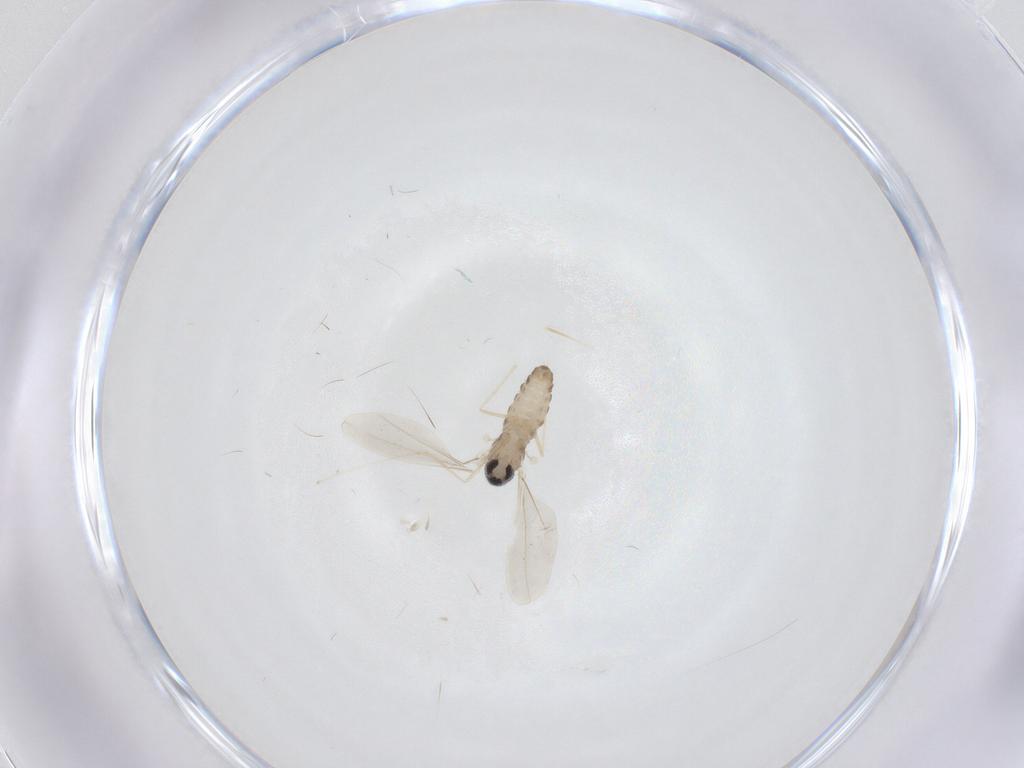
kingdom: Animalia
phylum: Arthropoda
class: Insecta
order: Diptera
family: Cecidomyiidae
